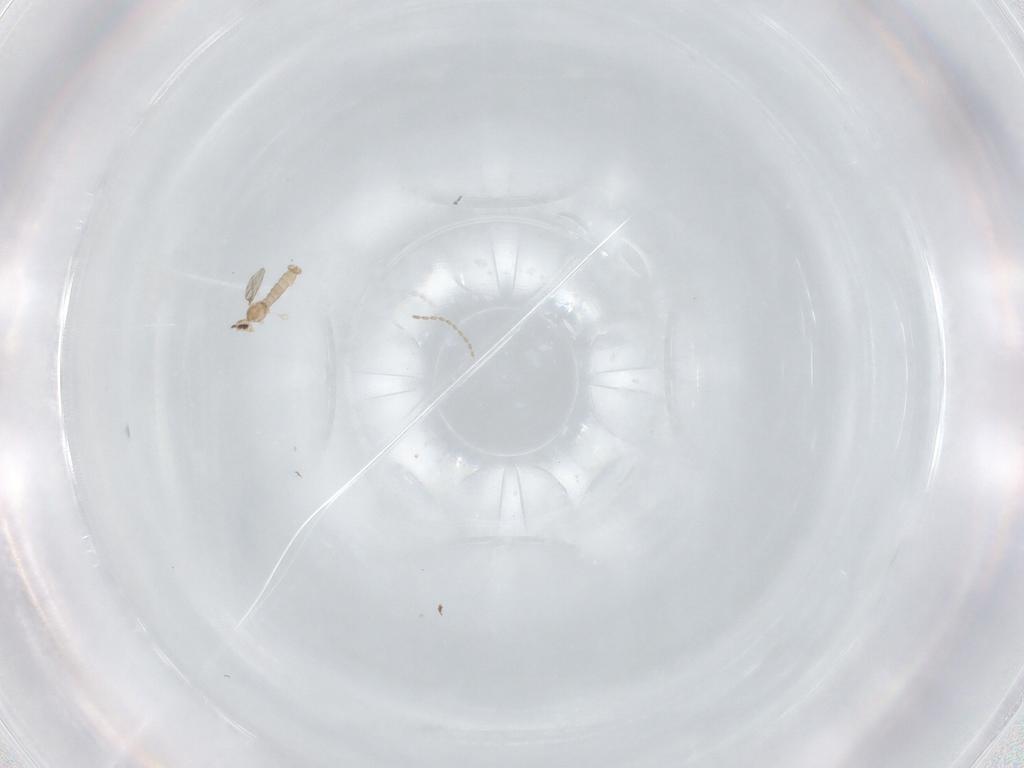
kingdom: Animalia
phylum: Arthropoda
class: Insecta
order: Diptera
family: Cecidomyiidae
